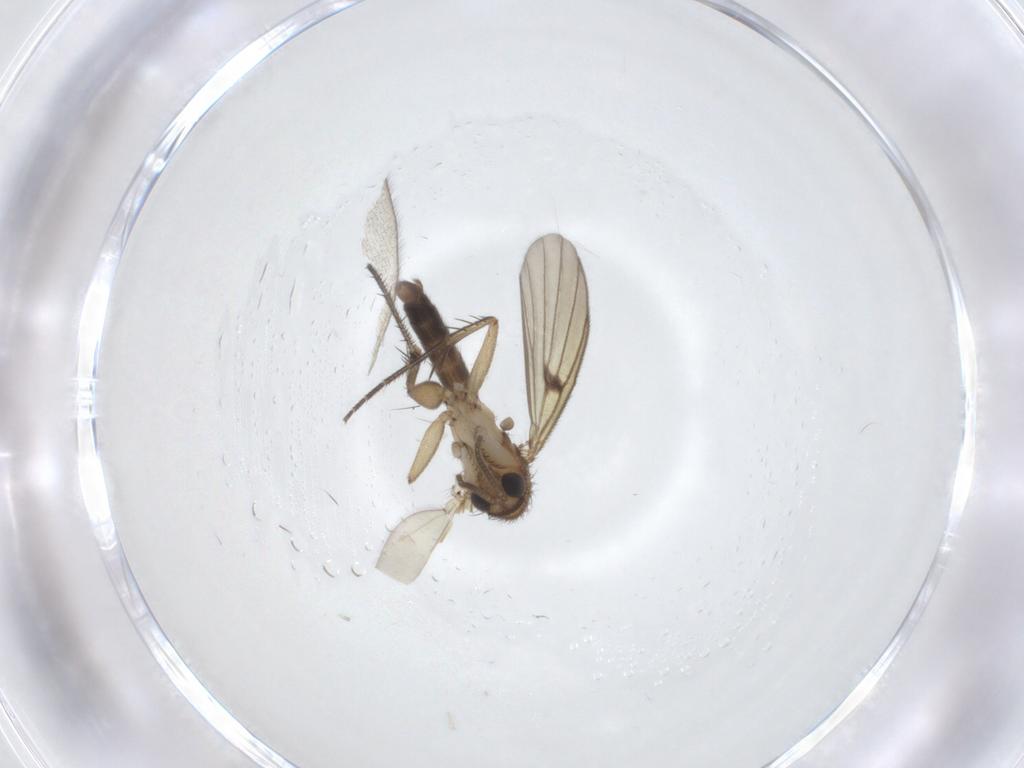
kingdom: Animalia
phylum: Arthropoda
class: Insecta
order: Diptera
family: Mycetophilidae
